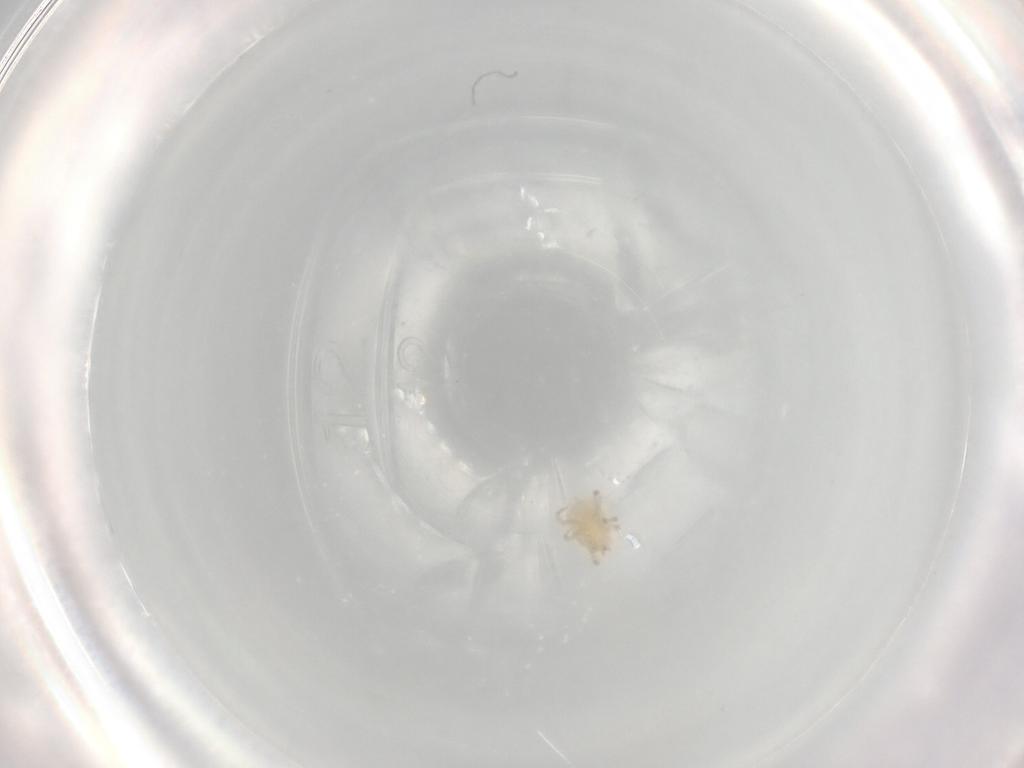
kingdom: Animalia
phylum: Arthropoda
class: Arachnida
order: Mesostigmata
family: Melicharidae
